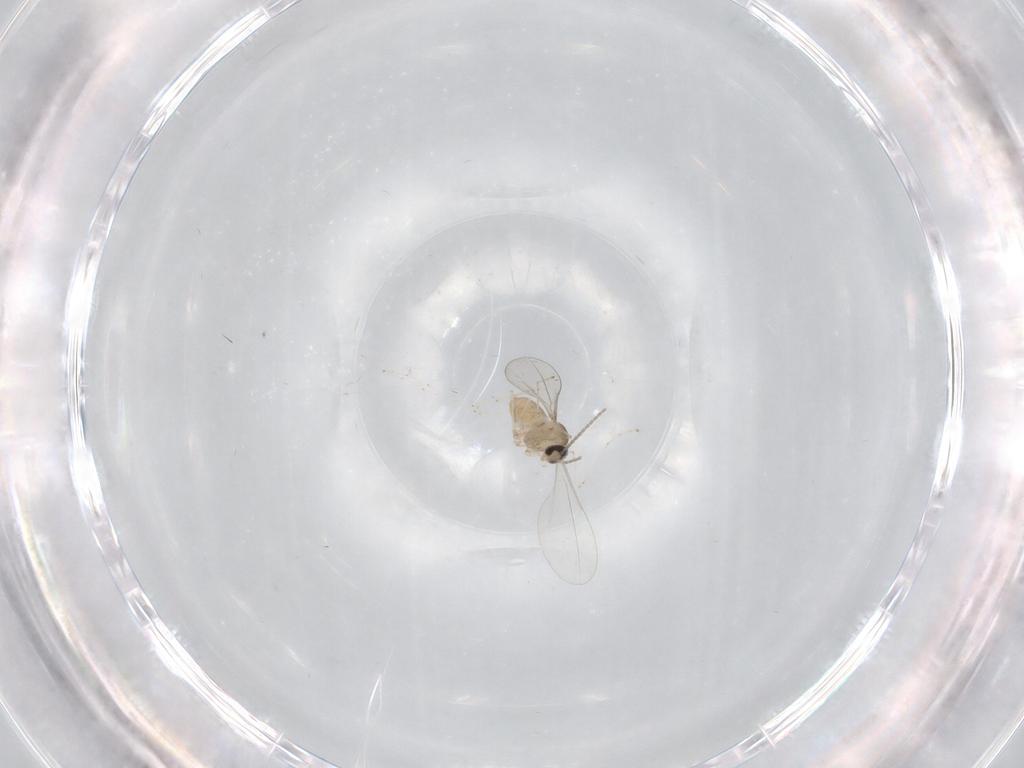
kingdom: Animalia
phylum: Arthropoda
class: Insecta
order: Diptera
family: Cecidomyiidae
